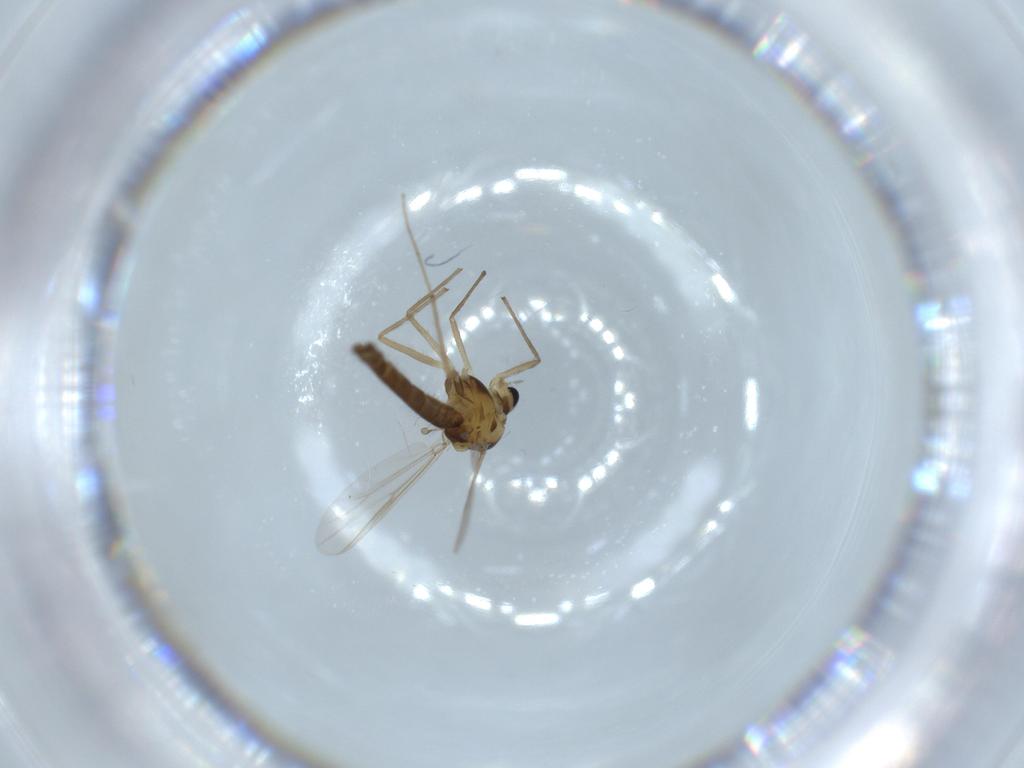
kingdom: Animalia
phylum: Arthropoda
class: Insecta
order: Diptera
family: Chironomidae
